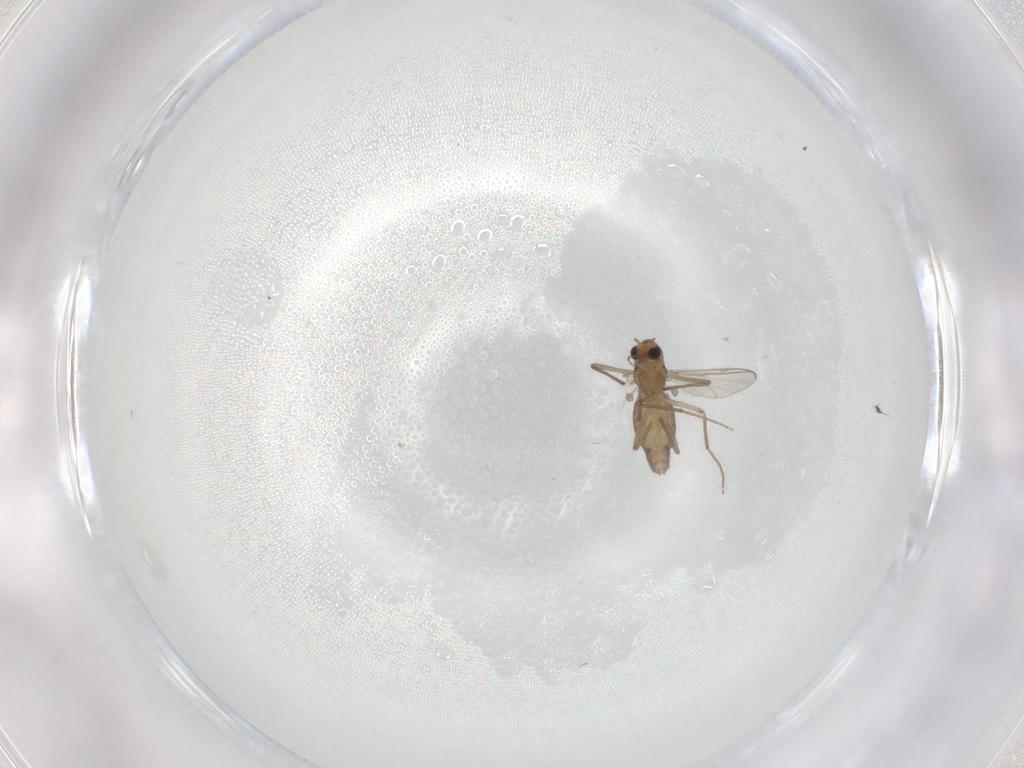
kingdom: Animalia
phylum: Arthropoda
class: Insecta
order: Diptera
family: Chironomidae
